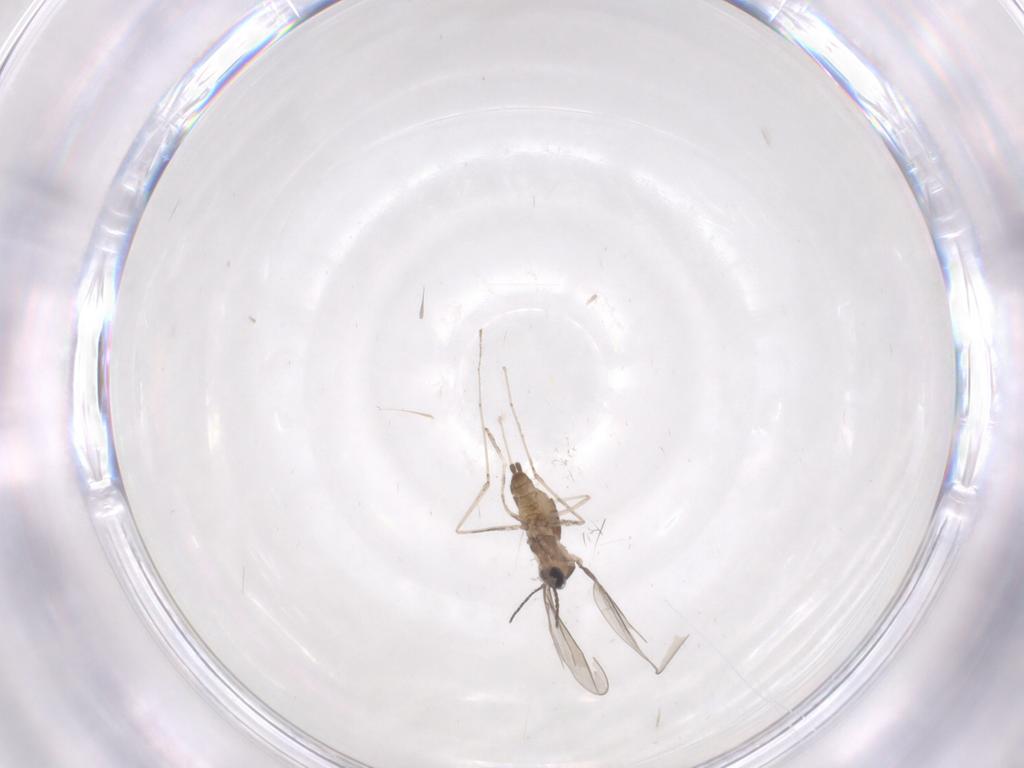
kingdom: Animalia
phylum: Arthropoda
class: Insecta
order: Diptera
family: Cecidomyiidae
